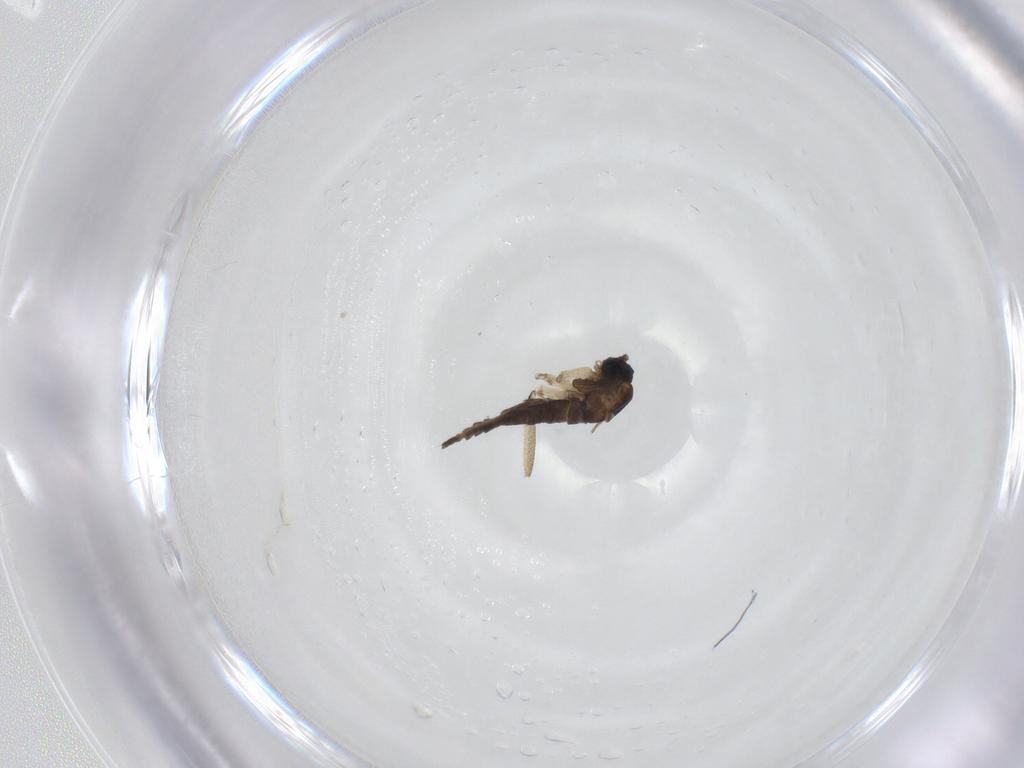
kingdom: Animalia
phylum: Arthropoda
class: Insecta
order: Diptera
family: Sciaridae
